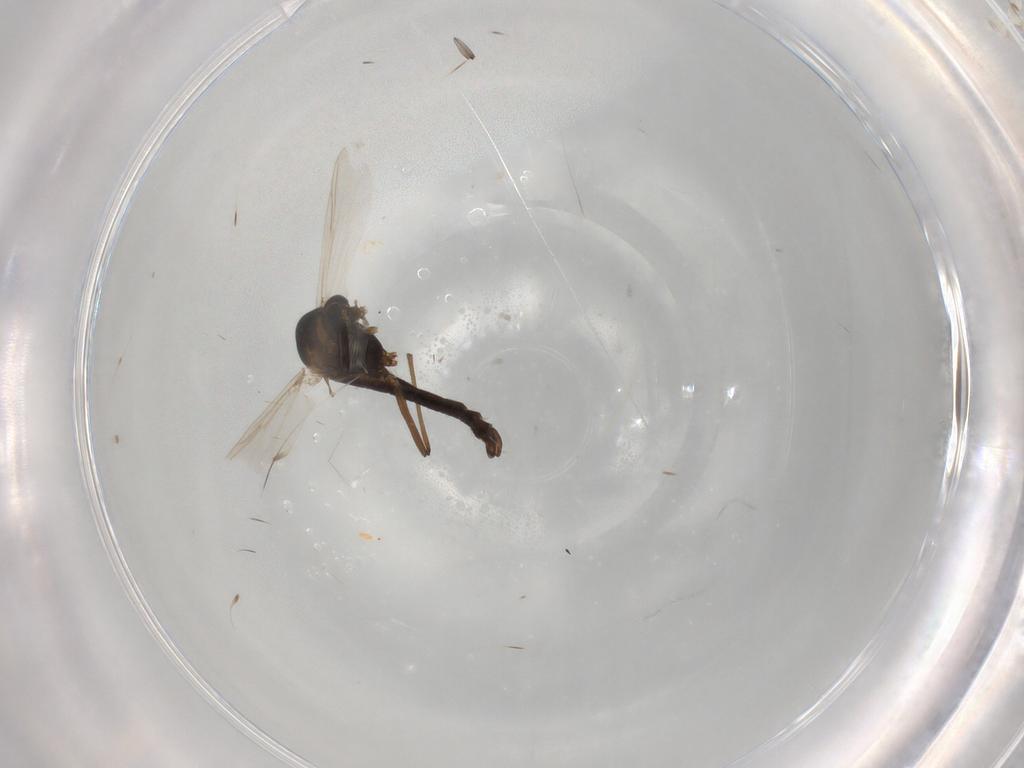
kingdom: Animalia
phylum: Arthropoda
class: Insecta
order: Diptera
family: Chironomidae
